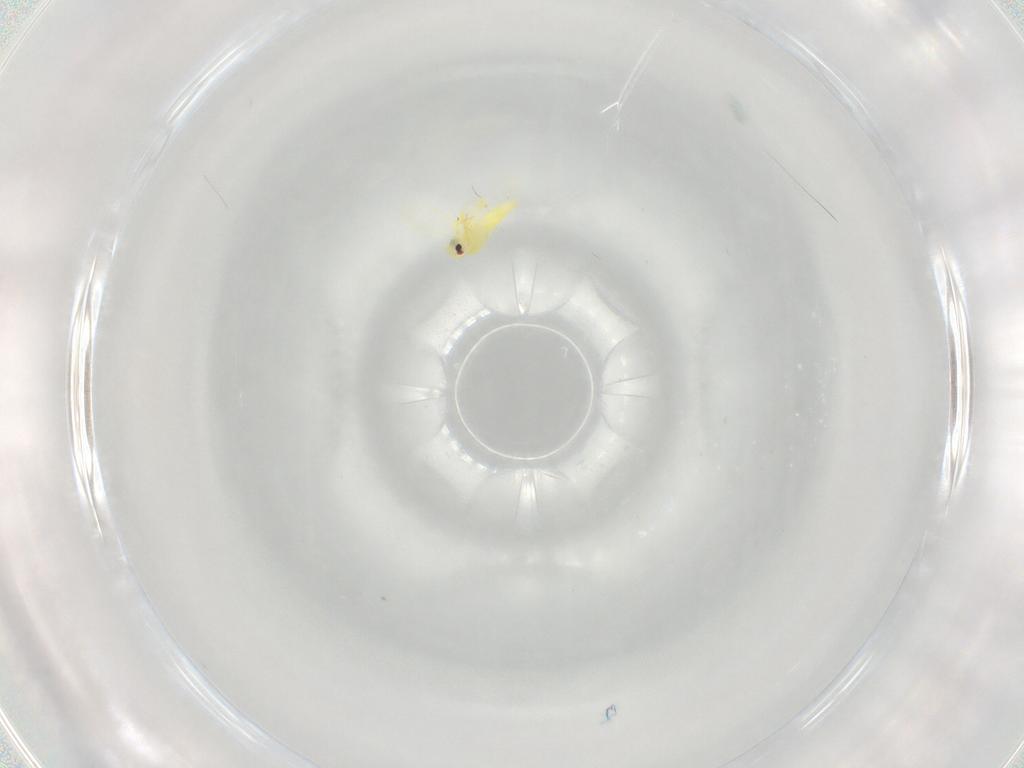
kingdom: Animalia
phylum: Arthropoda
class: Insecta
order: Hemiptera
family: Aleyrodidae
